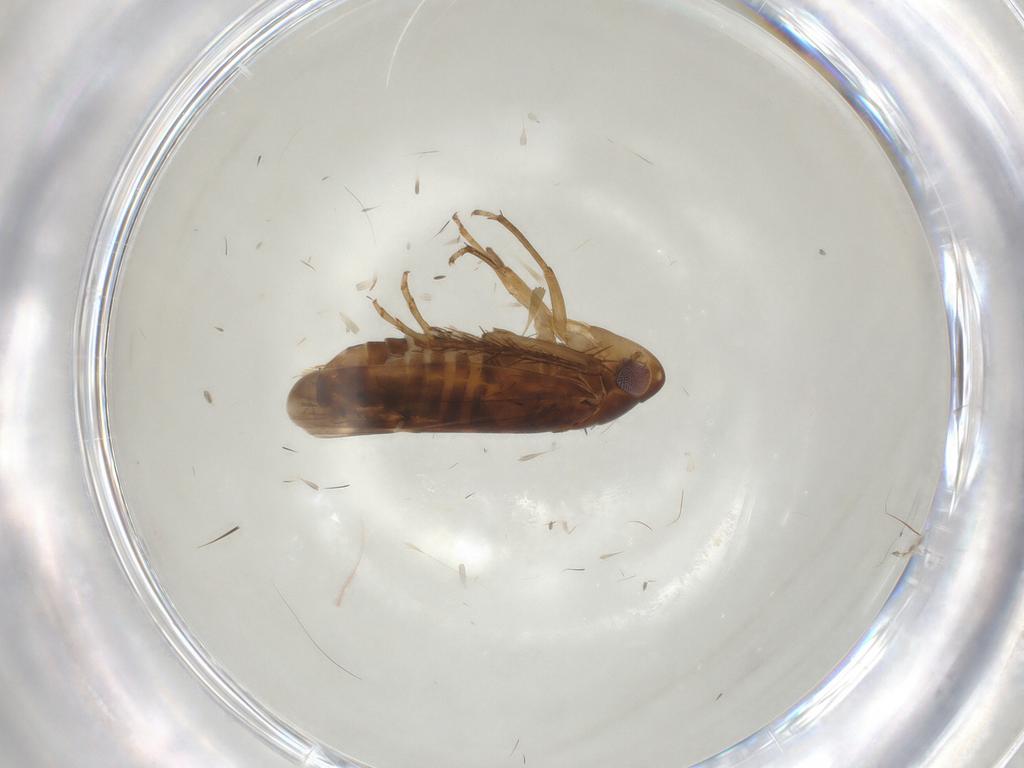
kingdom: Animalia
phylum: Arthropoda
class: Insecta
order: Hemiptera
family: Cicadellidae
